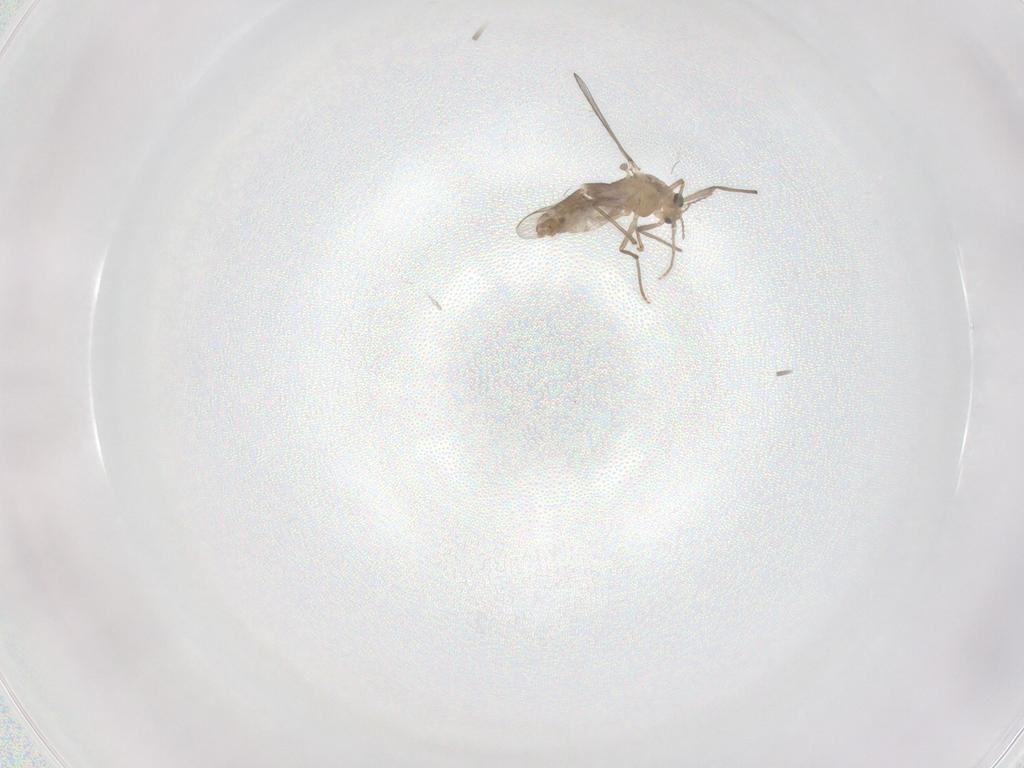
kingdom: Animalia
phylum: Arthropoda
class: Insecta
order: Diptera
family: Chironomidae
